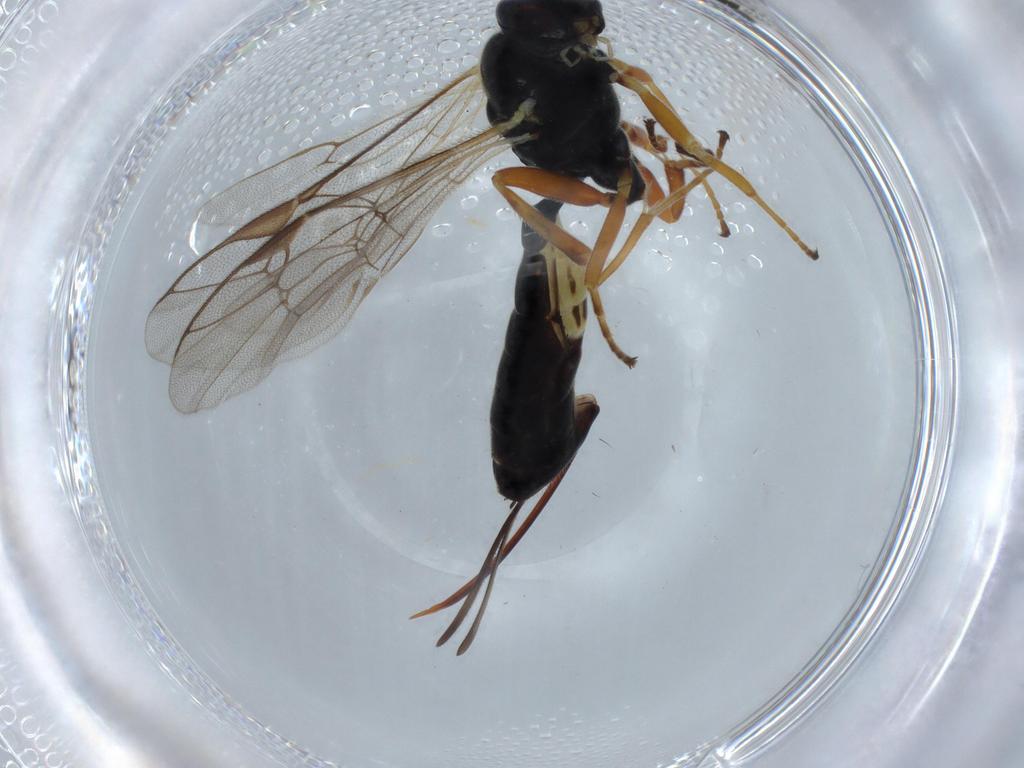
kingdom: Animalia
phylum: Arthropoda
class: Insecta
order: Hymenoptera
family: Ichneumonidae
